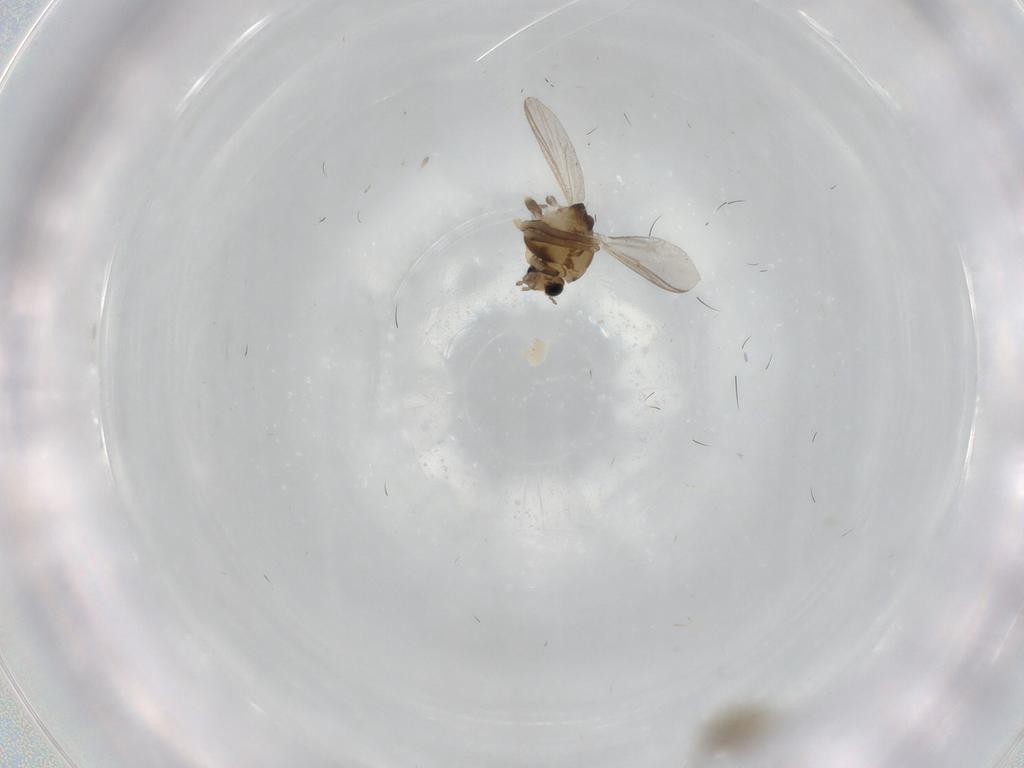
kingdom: Animalia
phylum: Arthropoda
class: Insecta
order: Diptera
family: Chironomidae
